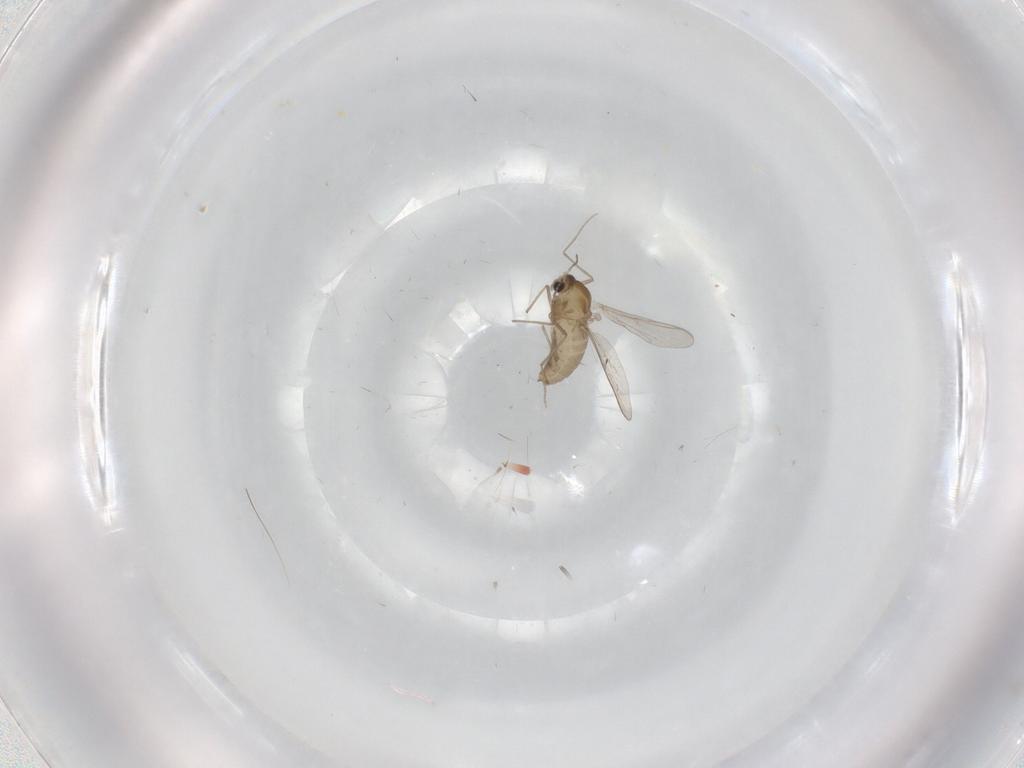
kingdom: Animalia
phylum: Arthropoda
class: Insecta
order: Diptera
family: Chironomidae
